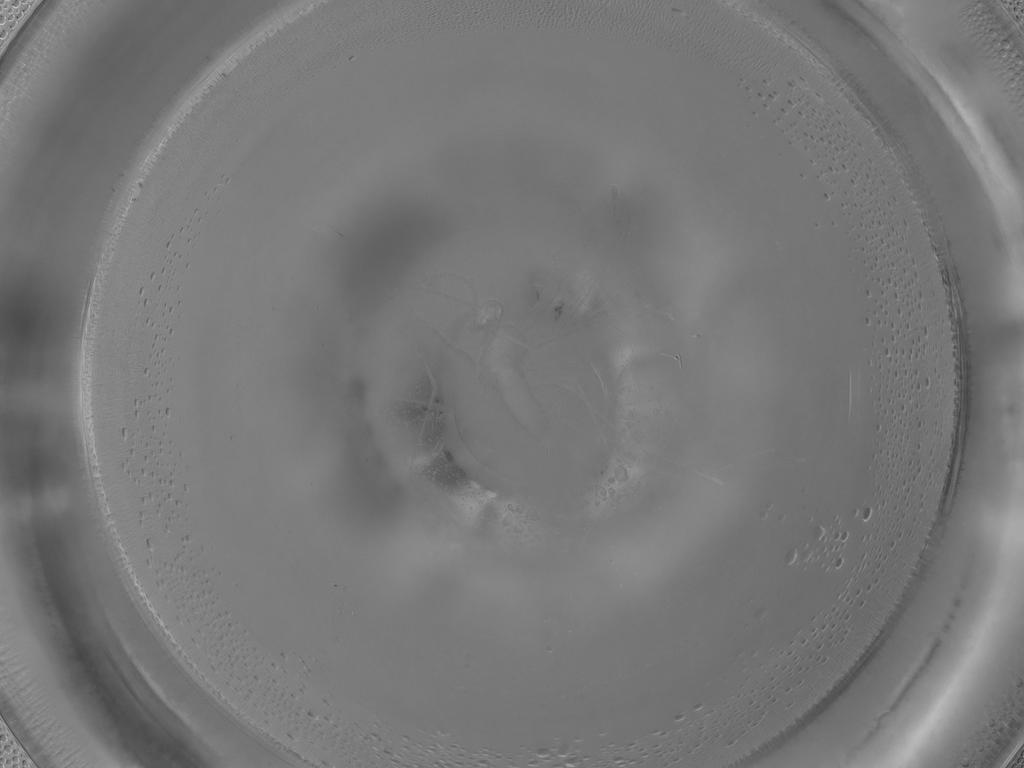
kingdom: Animalia
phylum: Arthropoda
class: Insecta
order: Diptera
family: Cecidomyiidae
